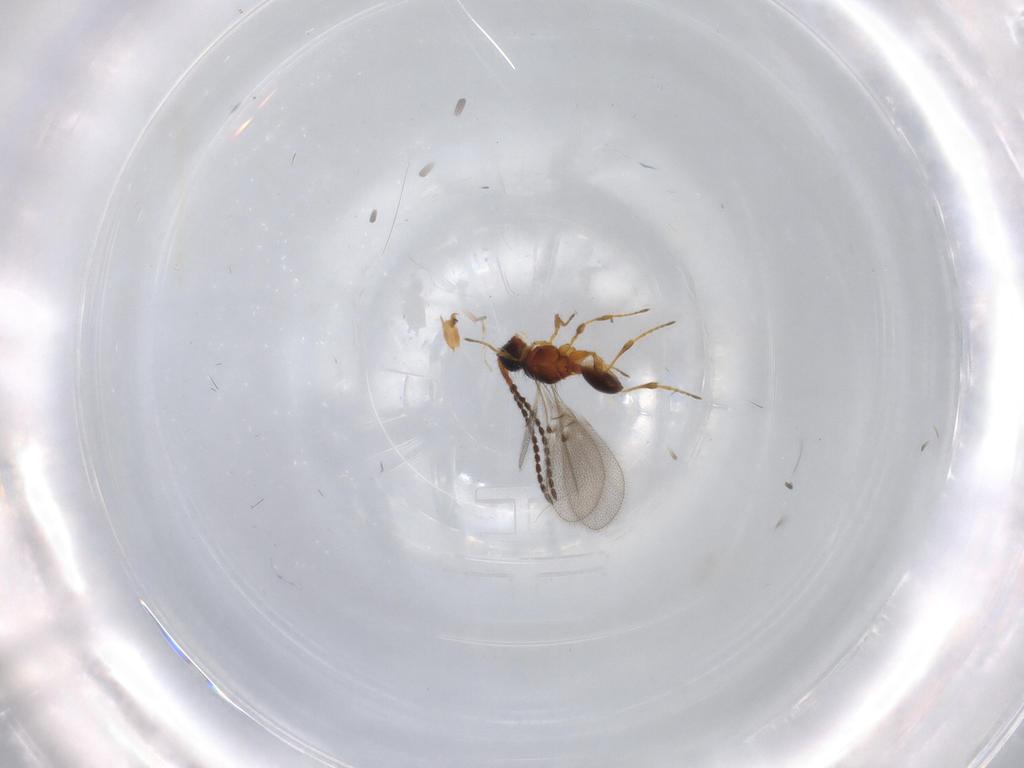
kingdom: Animalia
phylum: Arthropoda
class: Insecta
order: Hymenoptera
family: Diapriidae
